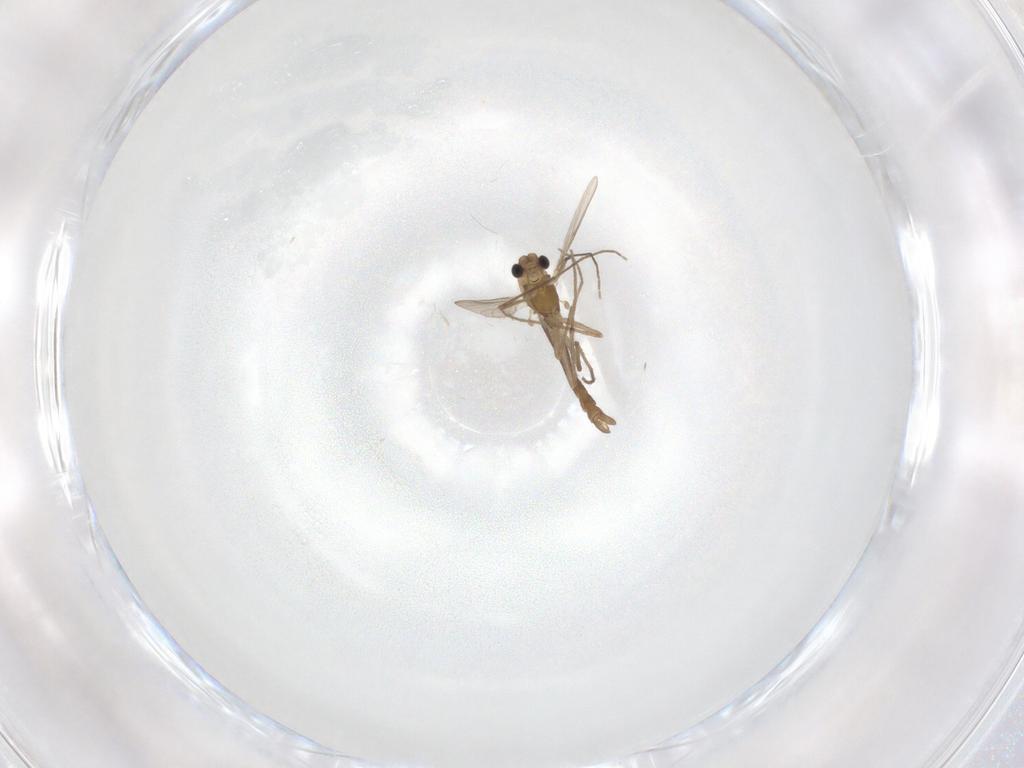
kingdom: Animalia
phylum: Arthropoda
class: Insecta
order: Diptera
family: Chironomidae
